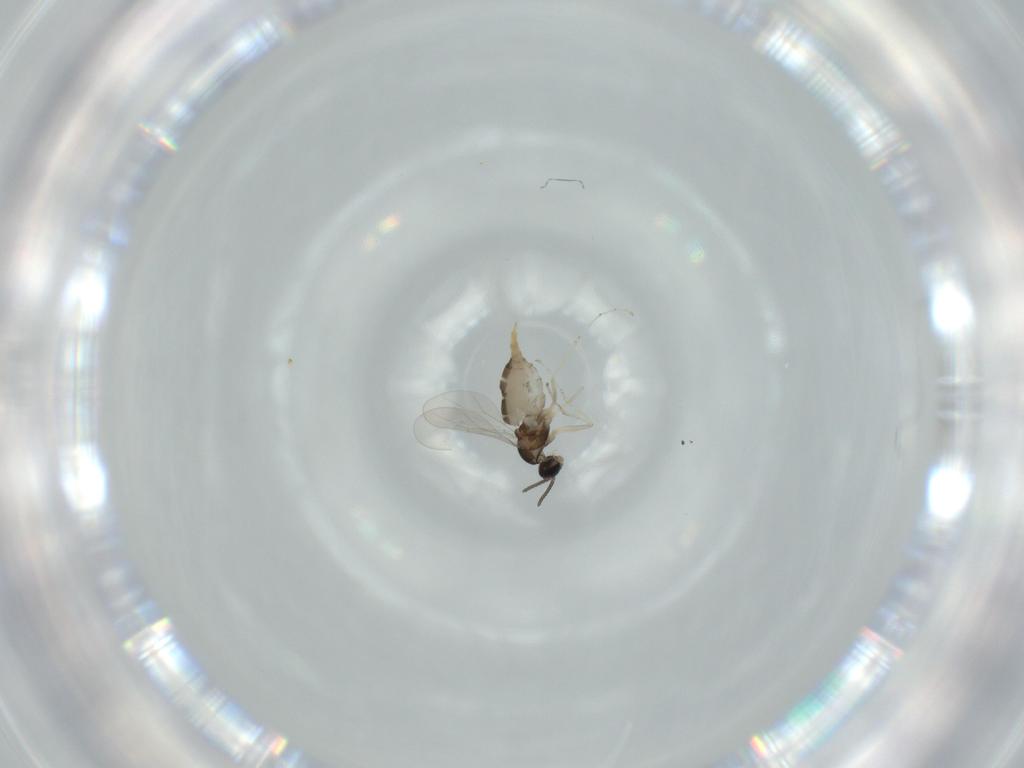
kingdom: Animalia
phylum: Arthropoda
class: Insecta
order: Diptera
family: Cecidomyiidae
